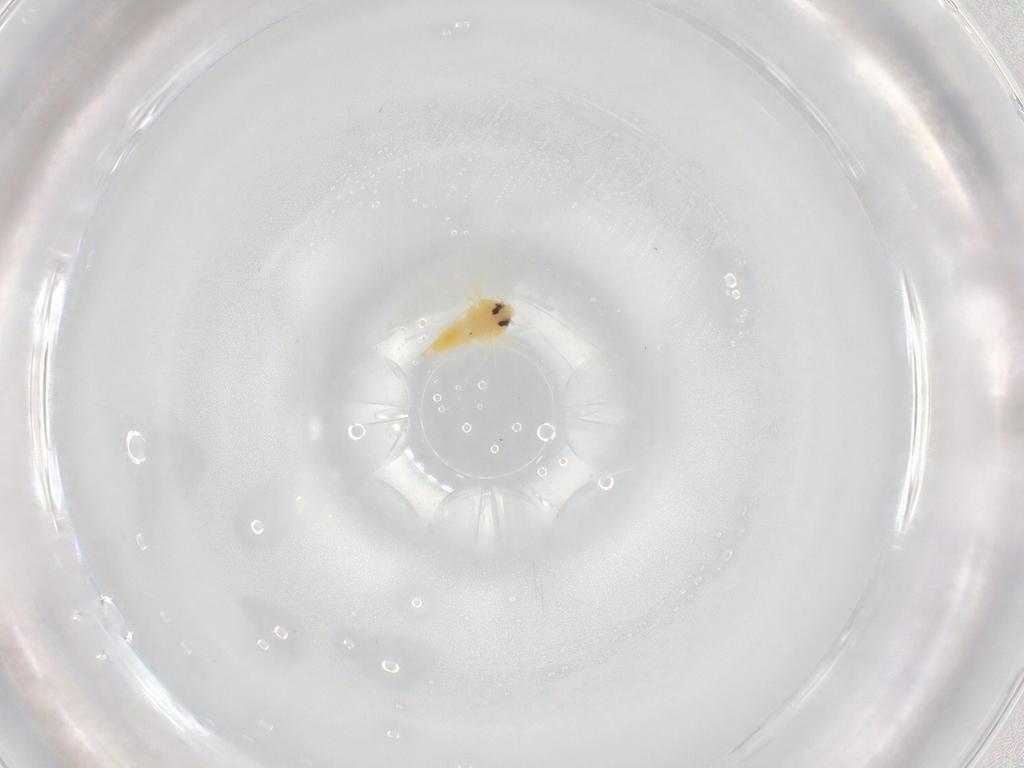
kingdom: Animalia
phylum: Arthropoda
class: Insecta
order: Hemiptera
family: Aleyrodidae
